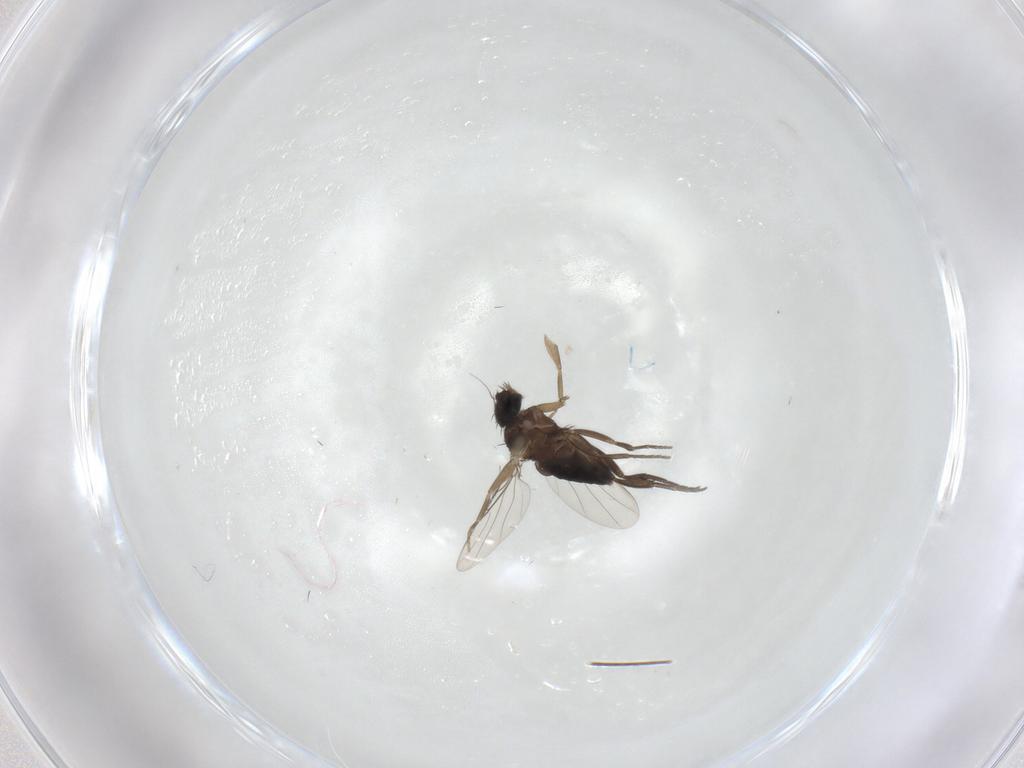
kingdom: Animalia
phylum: Arthropoda
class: Insecta
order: Diptera
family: Phoridae
